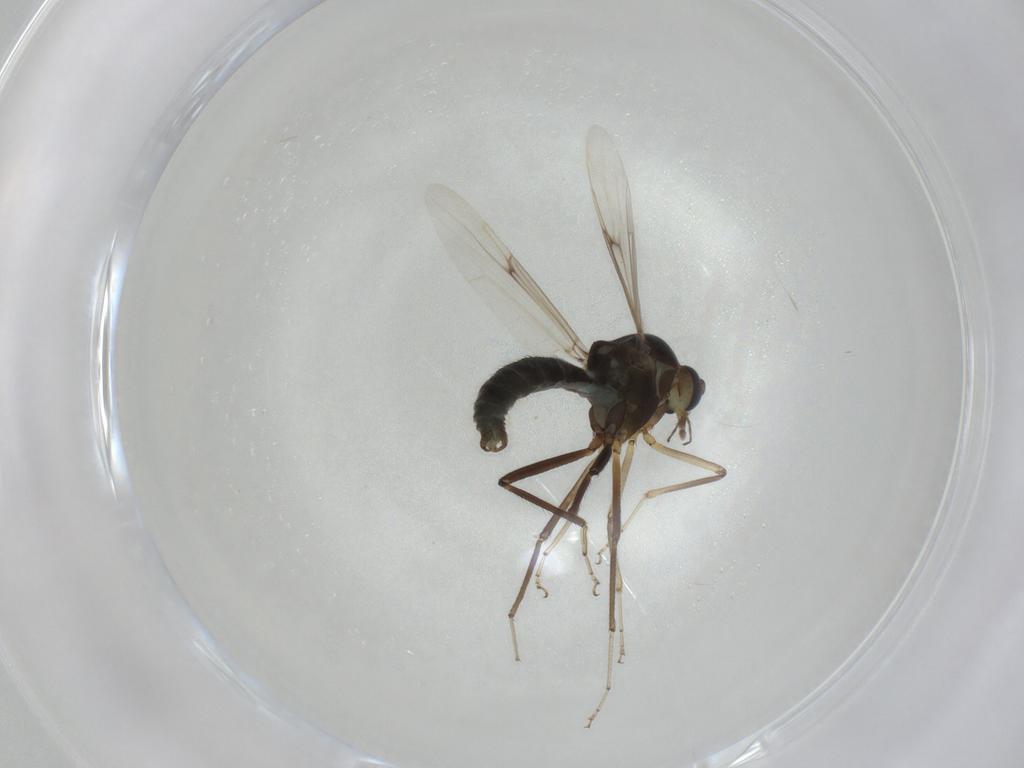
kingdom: Animalia
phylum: Arthropoda
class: Insecta
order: Diptera
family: Ceratopogonidae
